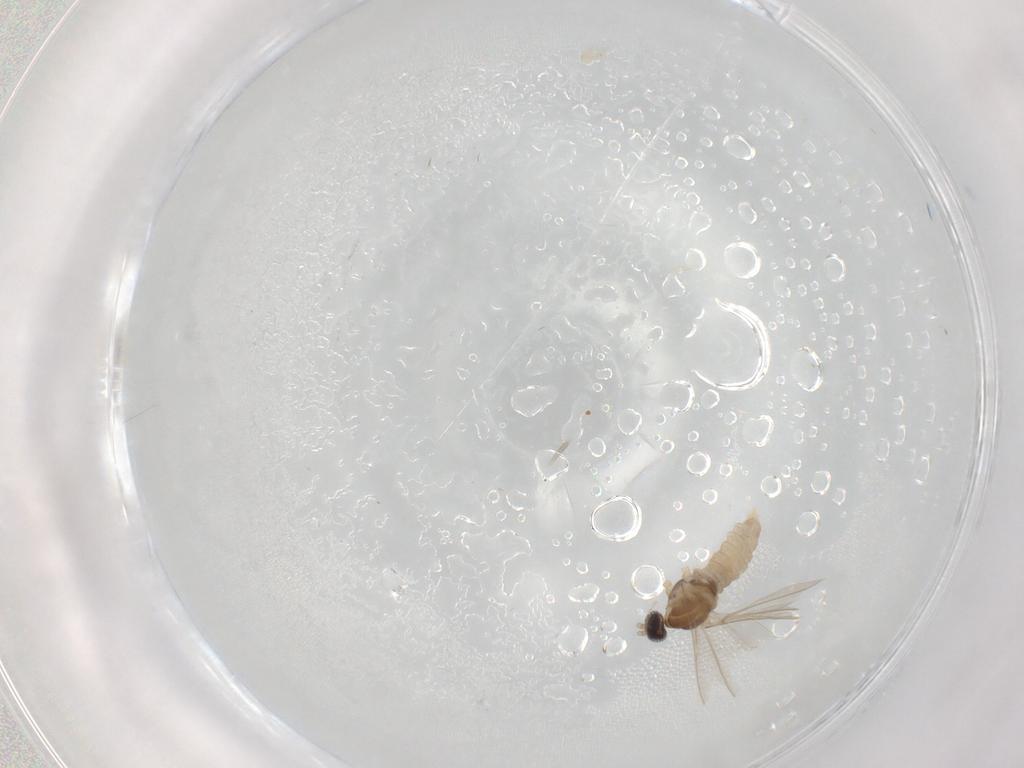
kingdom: Animalia
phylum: Arthropoda
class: Insecta
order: Diptera
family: Cecidomyiidae
